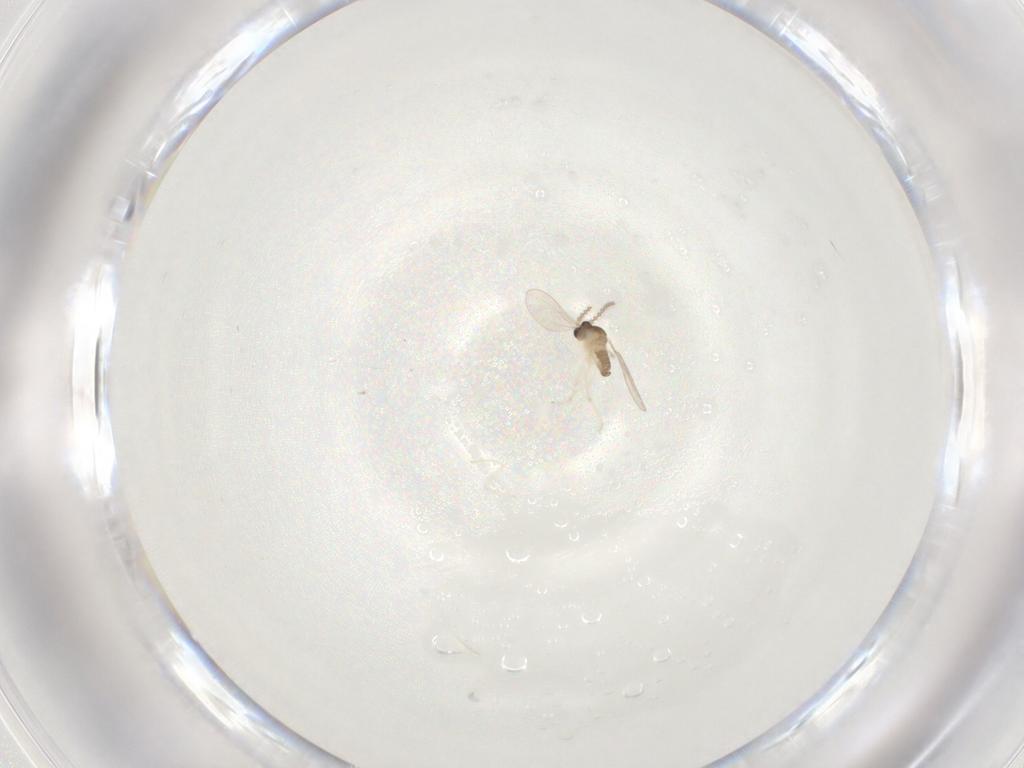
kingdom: Animalia
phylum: Arthropoda
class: Insecta
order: Diptera
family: Cecidomyiidae
